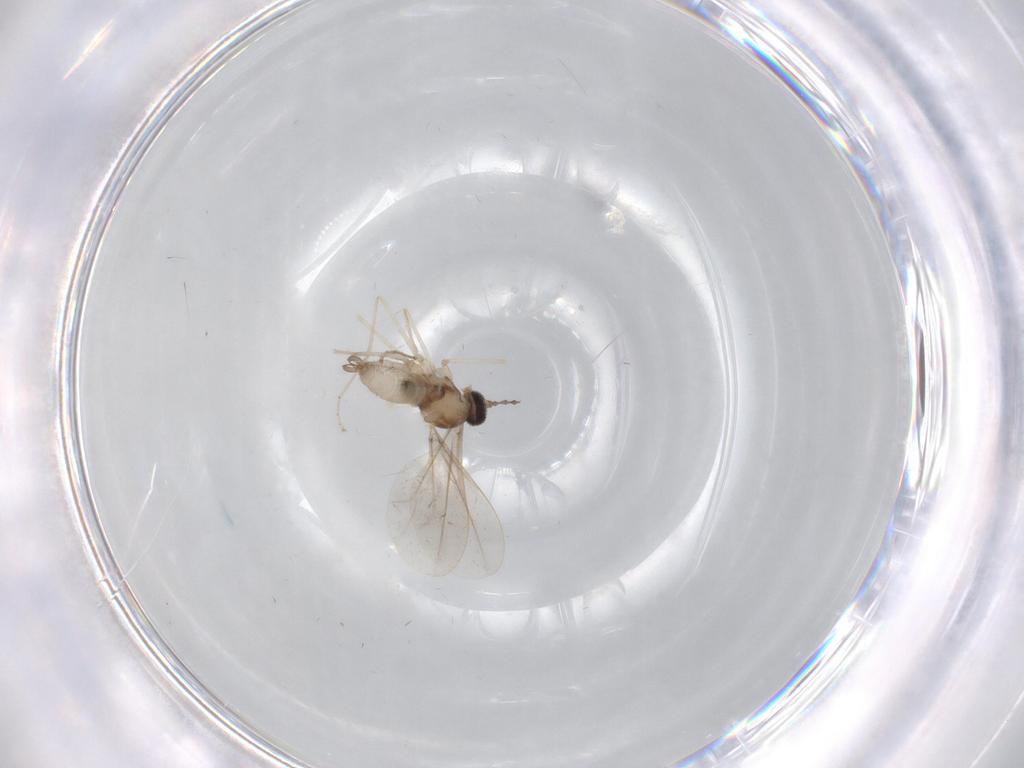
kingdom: Animalia
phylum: Arthropoda
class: Insecta
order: Diptera
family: Cecidomyiidae
